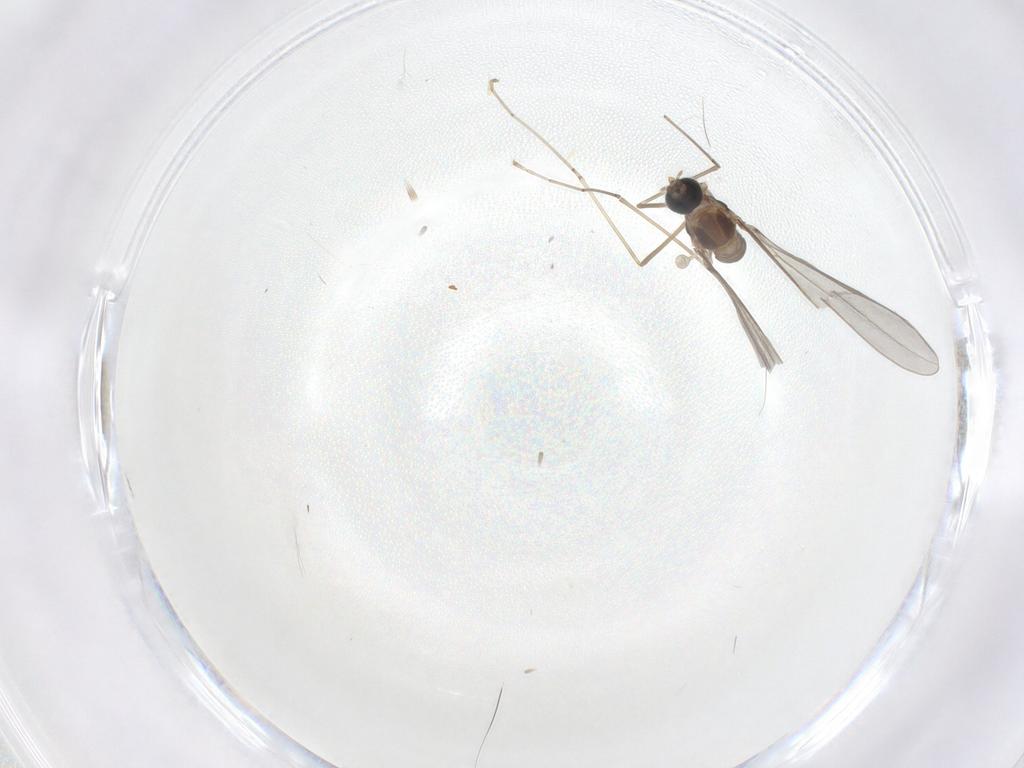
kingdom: Animalia
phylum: Arthropoda
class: Insecta
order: Diptera
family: Cecidomyiidae
